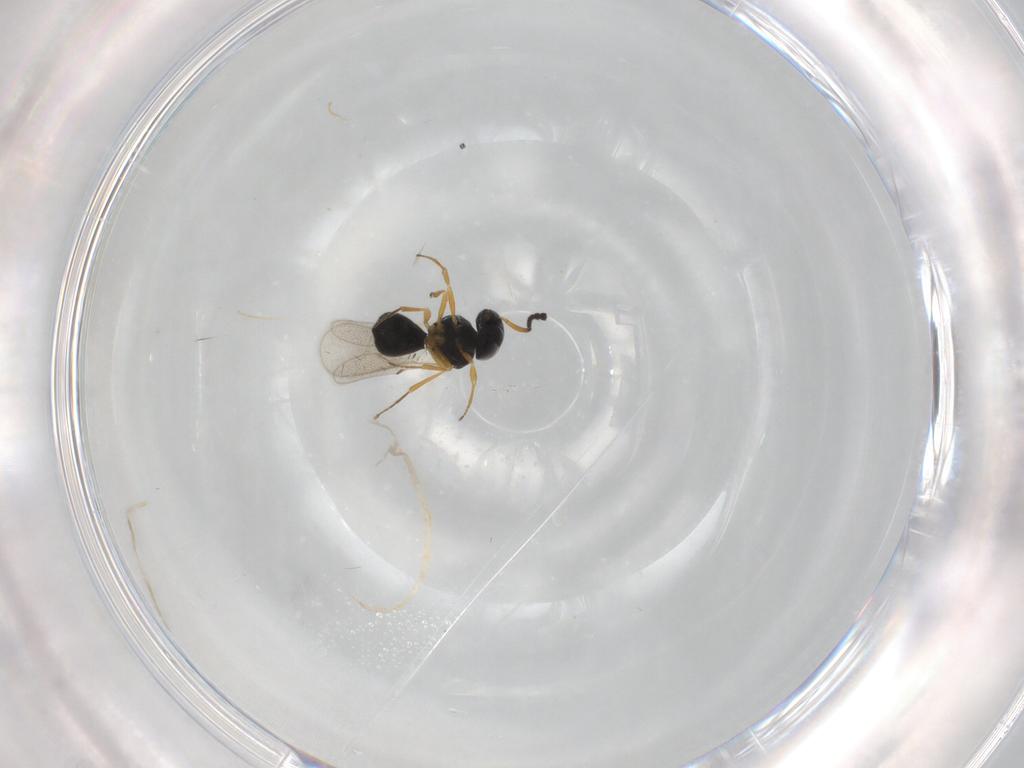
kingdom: Animalia
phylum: Arthropoda
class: Insecta
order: Hymenoptera
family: Scelionidae
